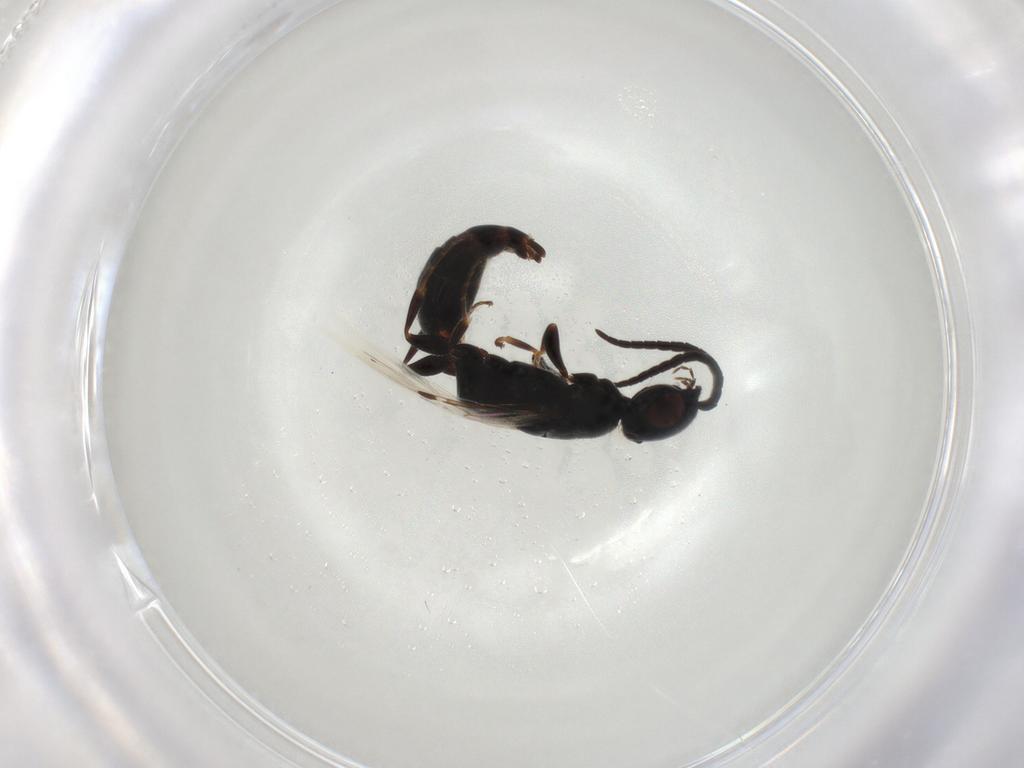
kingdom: Animalia
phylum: Arthropoda
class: Insecta
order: Hymenoptera
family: Bethylidae
